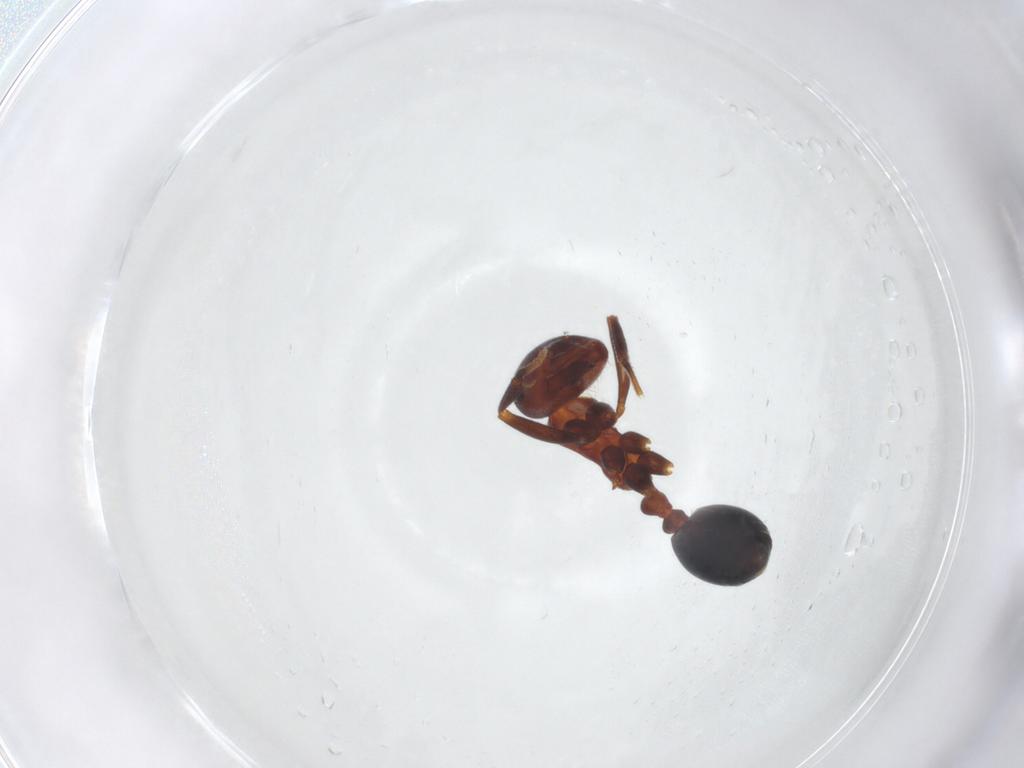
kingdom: Animalia
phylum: Arthropoda
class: Insecta
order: Hymenoptera
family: Formicidae
